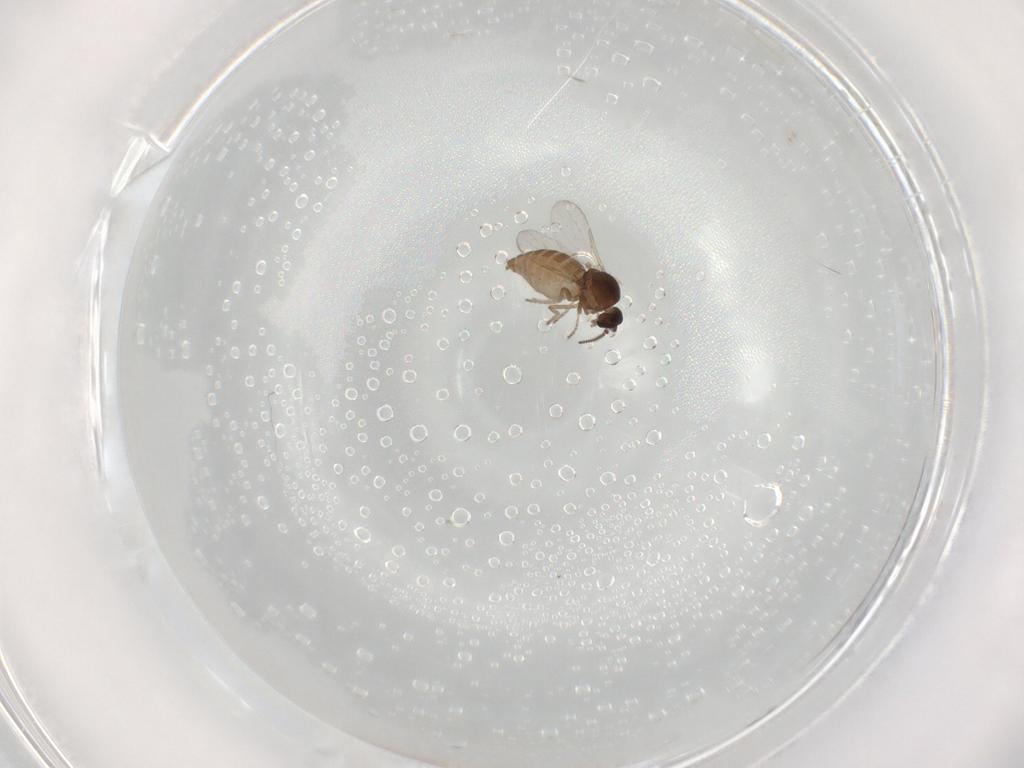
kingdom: Animalia
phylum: Arthropoda
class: Insecta
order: Diptera
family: Ceratopogonidae
